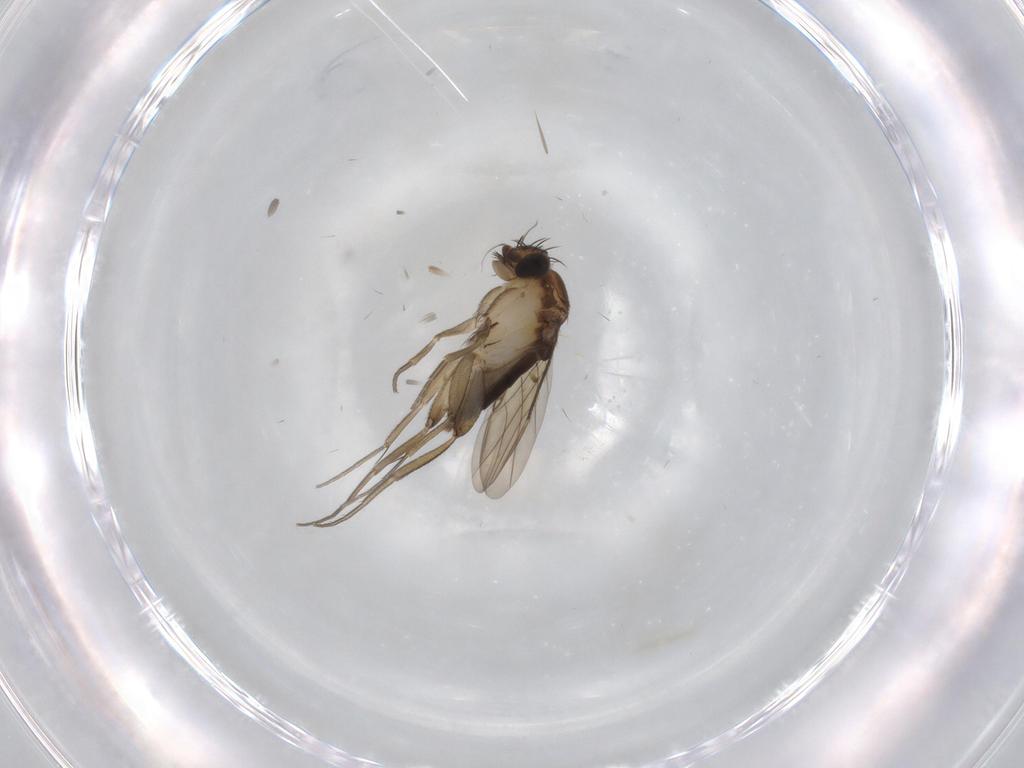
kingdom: Animalia
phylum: Arthropoda
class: Insecta
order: Diptera
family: Phoridae
